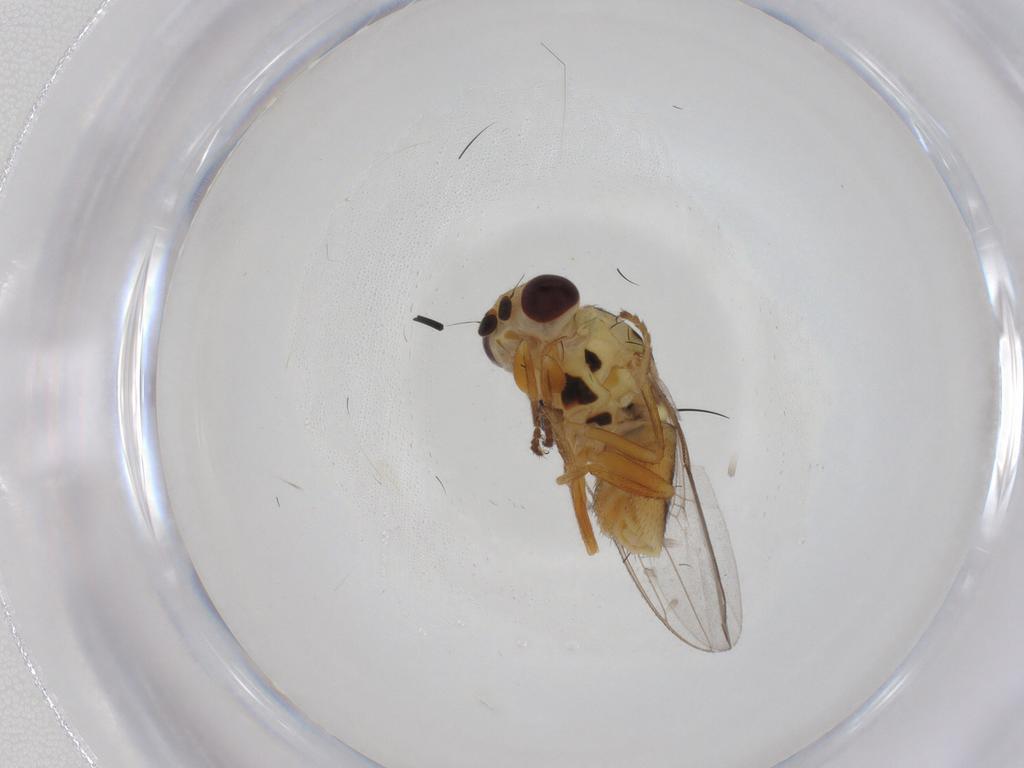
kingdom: Animalia
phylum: Arthropoda
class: Insecta
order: Diptera
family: Chloropidae
